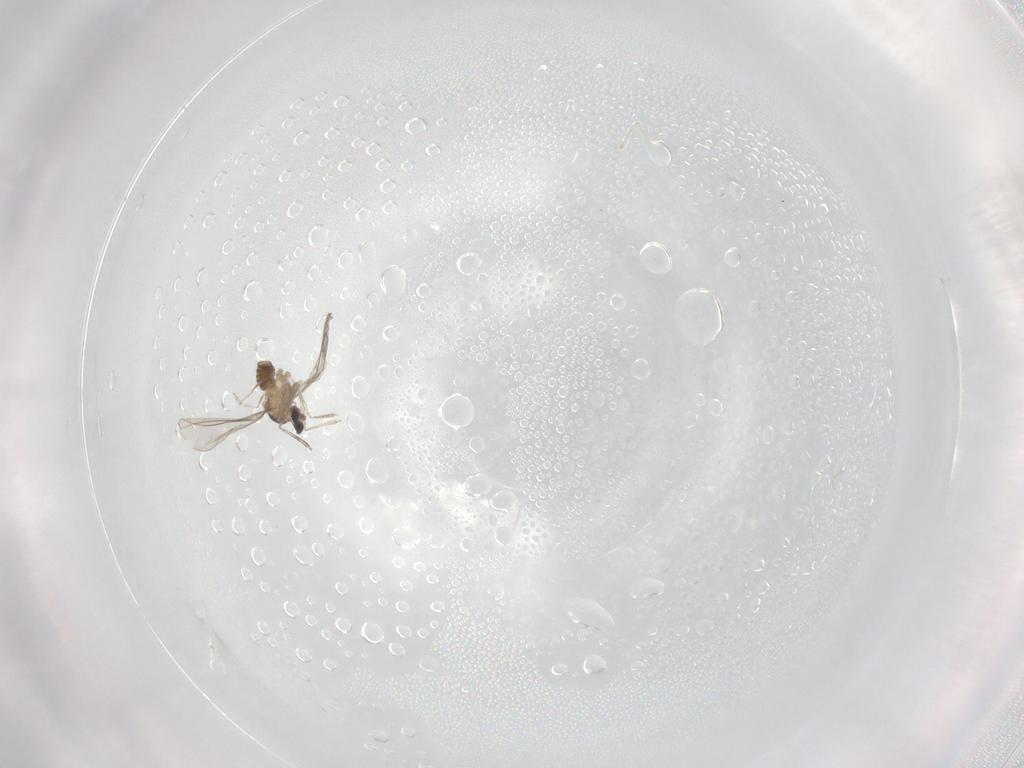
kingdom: Animalia
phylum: Arthropoda
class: Insecta
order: Diptera
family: Cecidomyiidae
